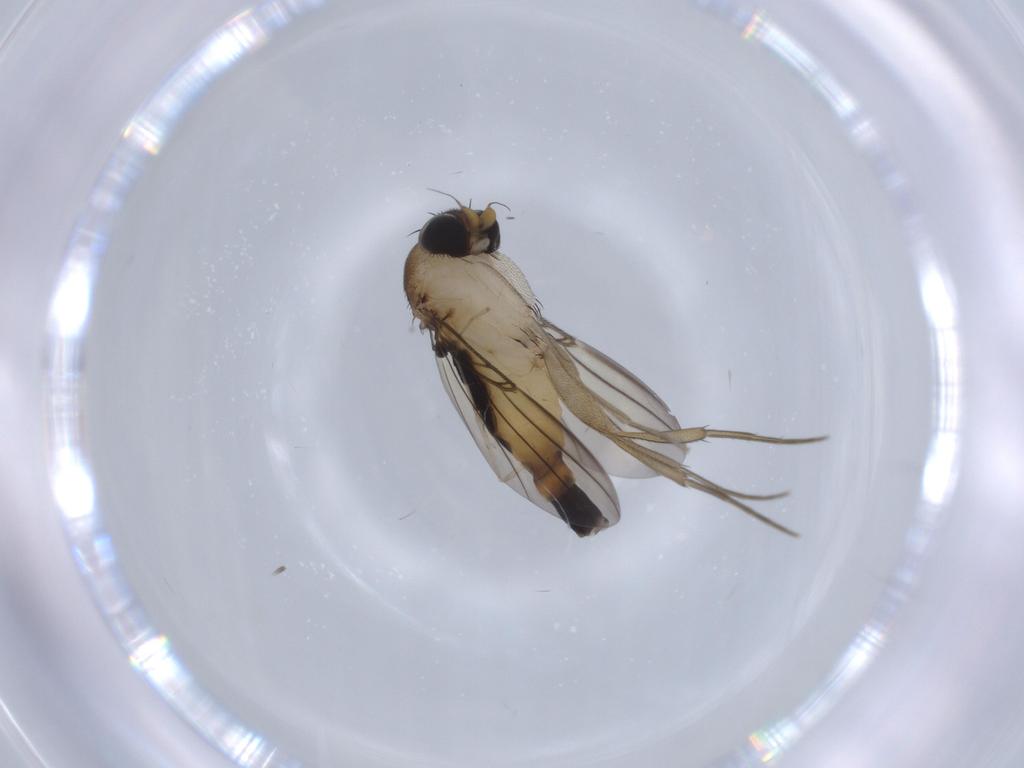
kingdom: Animalia
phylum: Arthropoda
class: Insecta
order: Diptera
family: Phoridae
